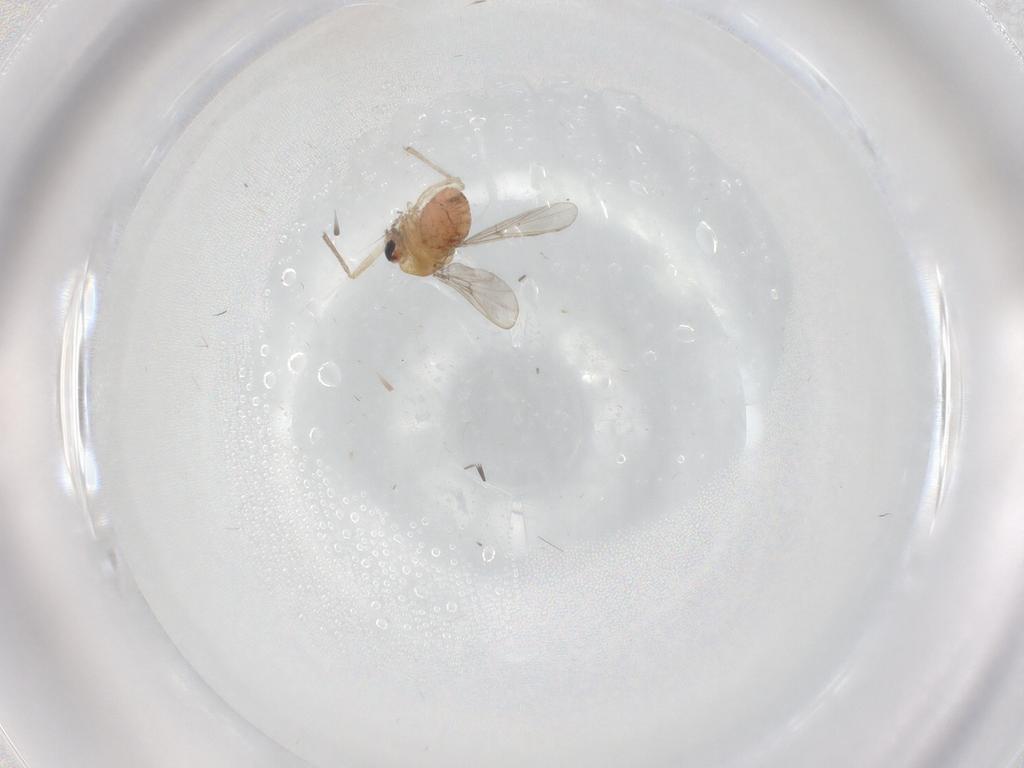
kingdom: Animalia
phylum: Arthropoda
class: Insecta
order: Diptera
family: Chironomidae
